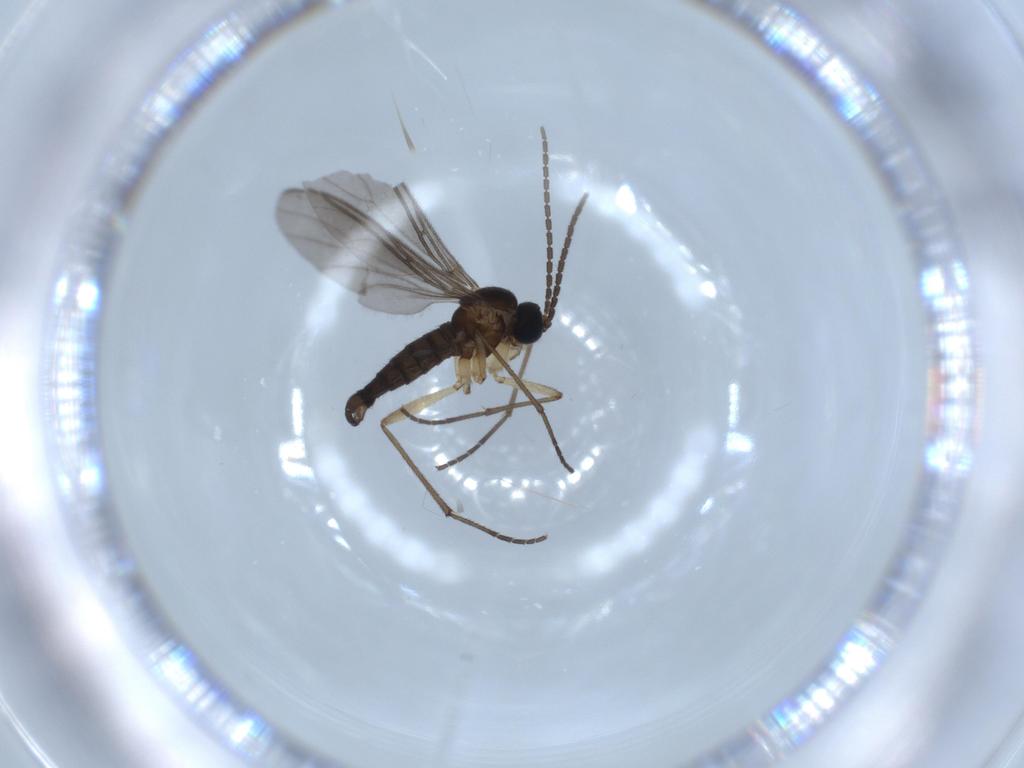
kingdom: Animalia
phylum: Arthropoda
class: Insecta
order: Diptera
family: Sciaridae
